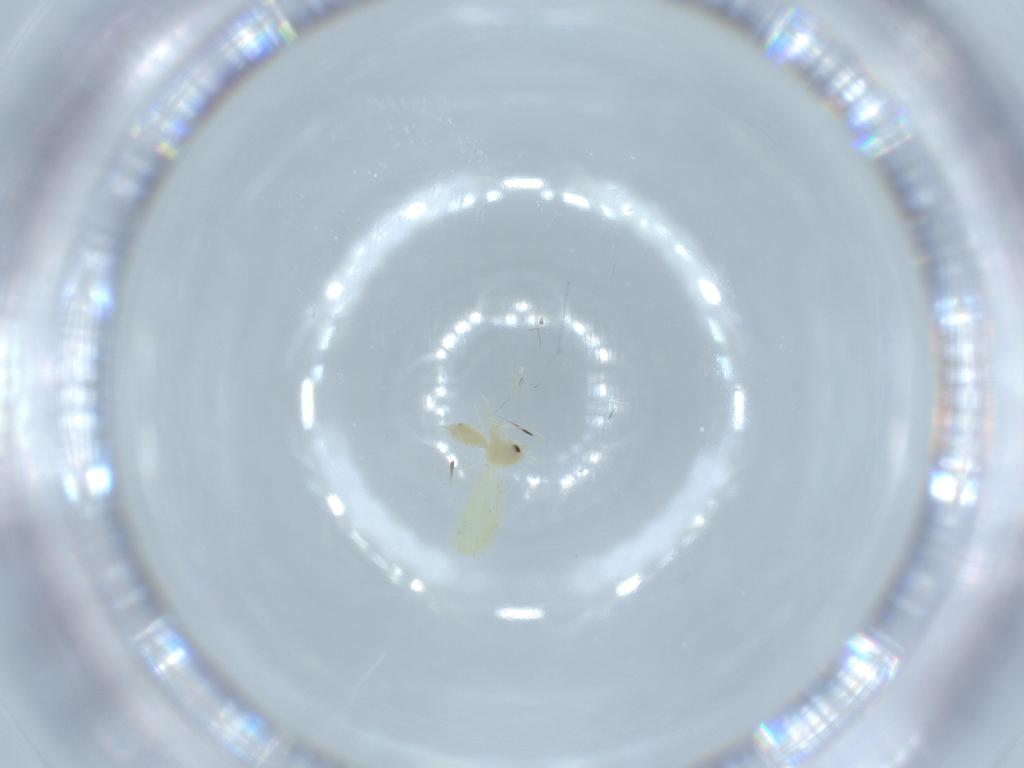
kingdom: Animalia
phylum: Arthropoda
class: Insecta
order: Hemiptera
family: Aleyrodidae
